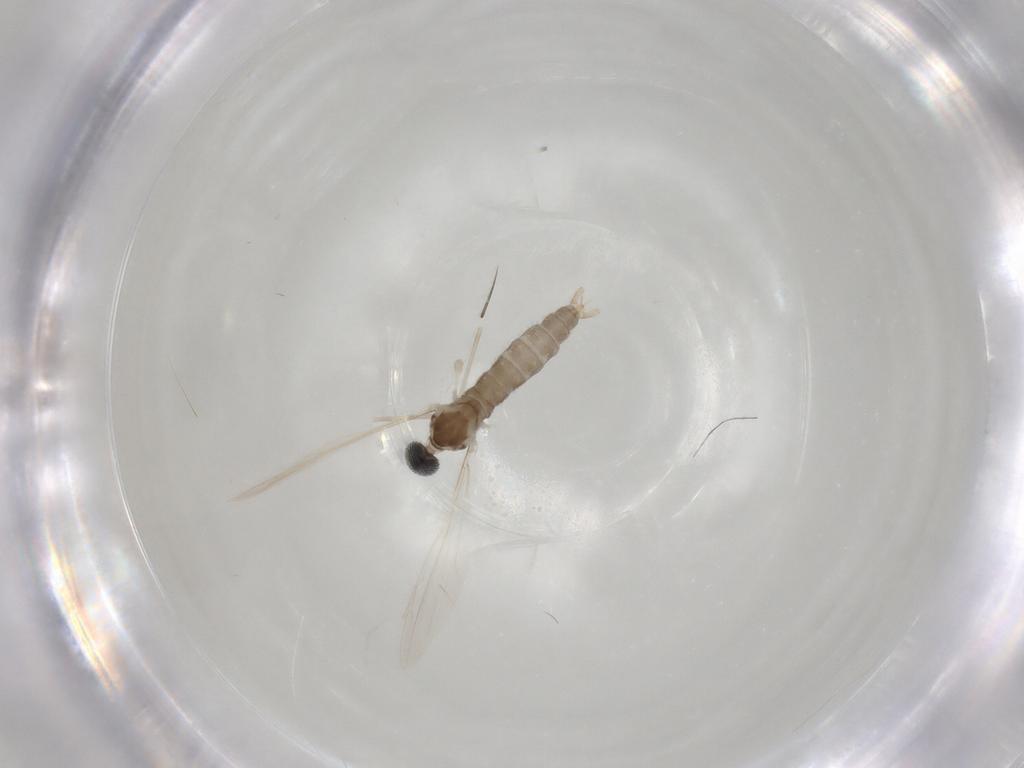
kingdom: Animalia
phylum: Arthropoda
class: Insecta
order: Diptera
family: Cecidomyiidae
